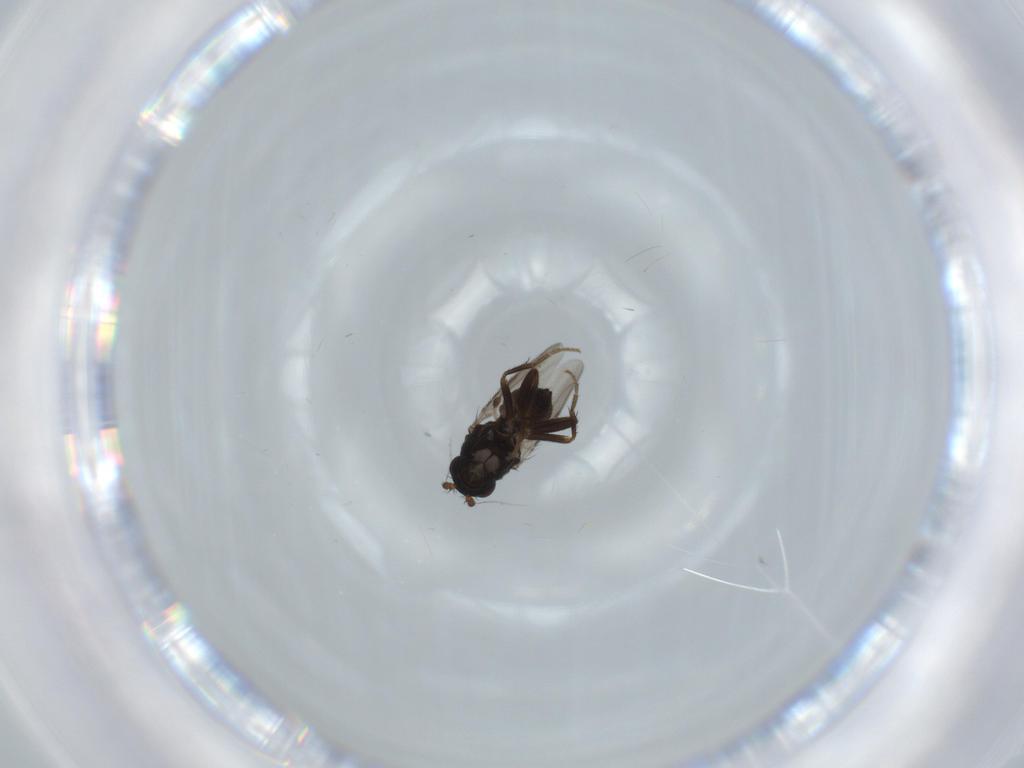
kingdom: Animalia
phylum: Arthropoda
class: Insecta
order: Diptera
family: Sphaeroceridae
